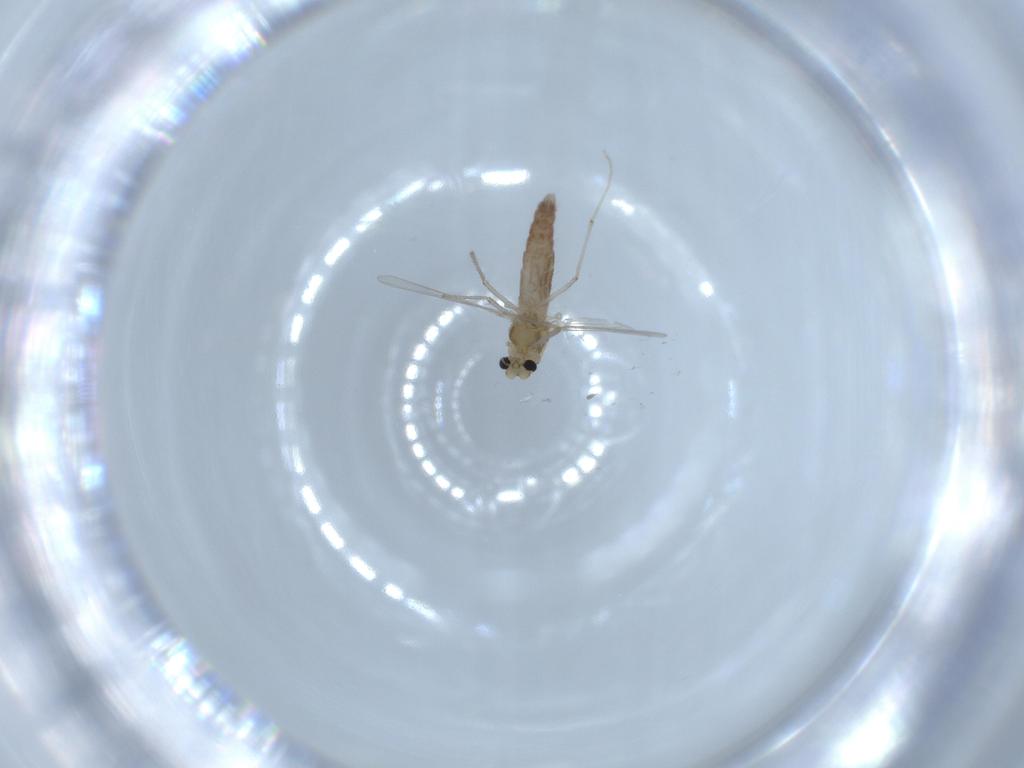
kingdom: Animalia
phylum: Arthropoda
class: Insecta
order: Diptera
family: Chironomidae
